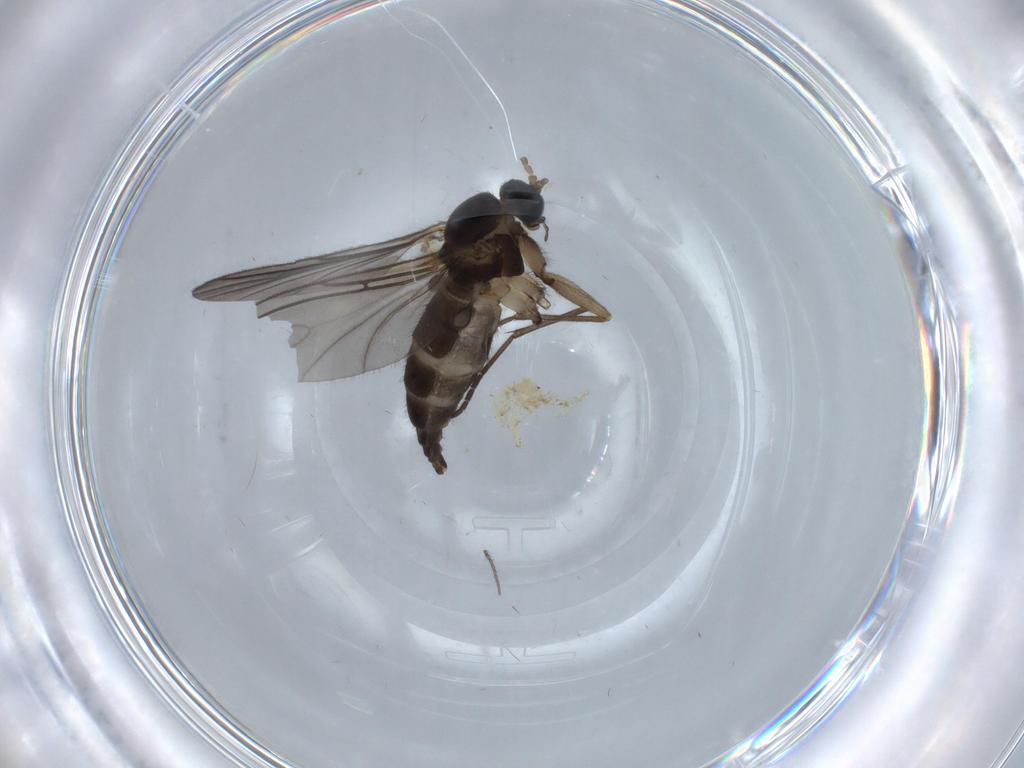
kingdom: Animalia
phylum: Arthropoda
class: Insecta
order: Diptera
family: Sciaridae
